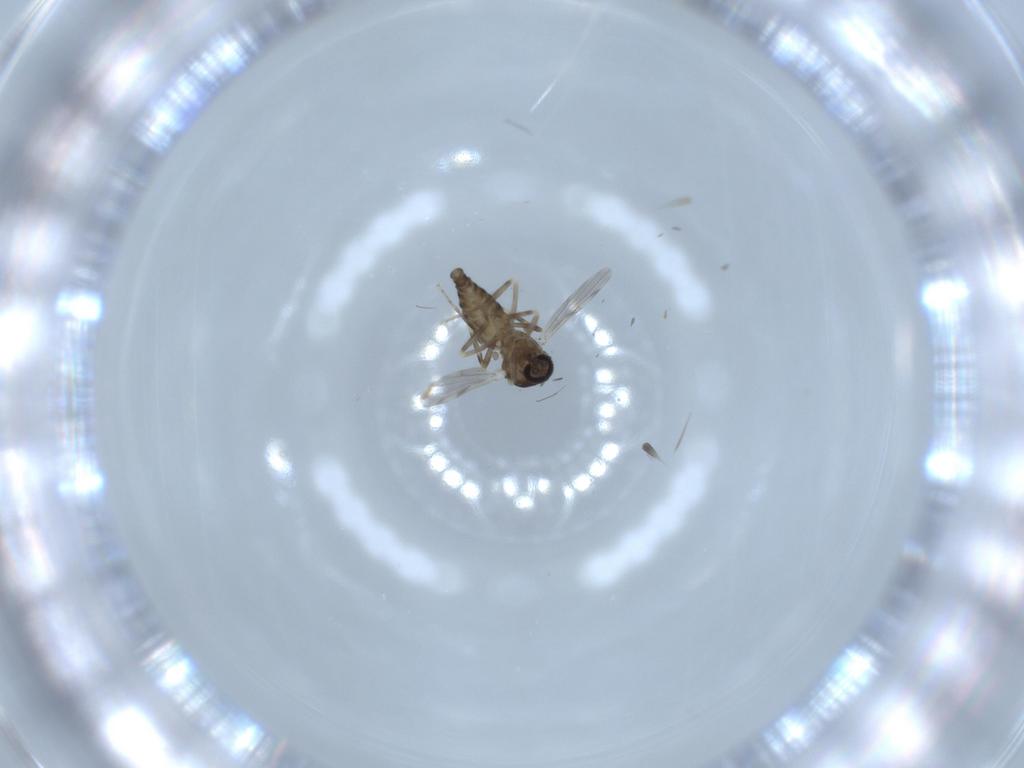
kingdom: Animalia
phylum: Arthropoda
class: Insecta
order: Diptera
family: Ceratopogonidae
